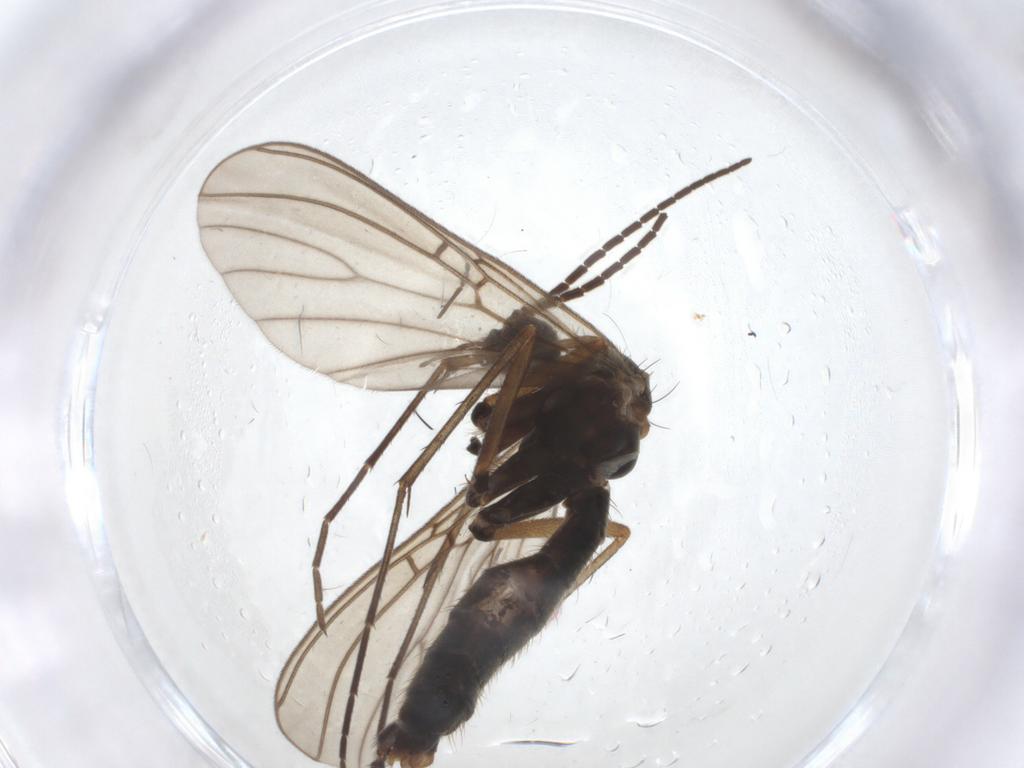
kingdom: Animalia
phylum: Arthropoda
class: Insecta
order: Diptera
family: Mycetophilidae
